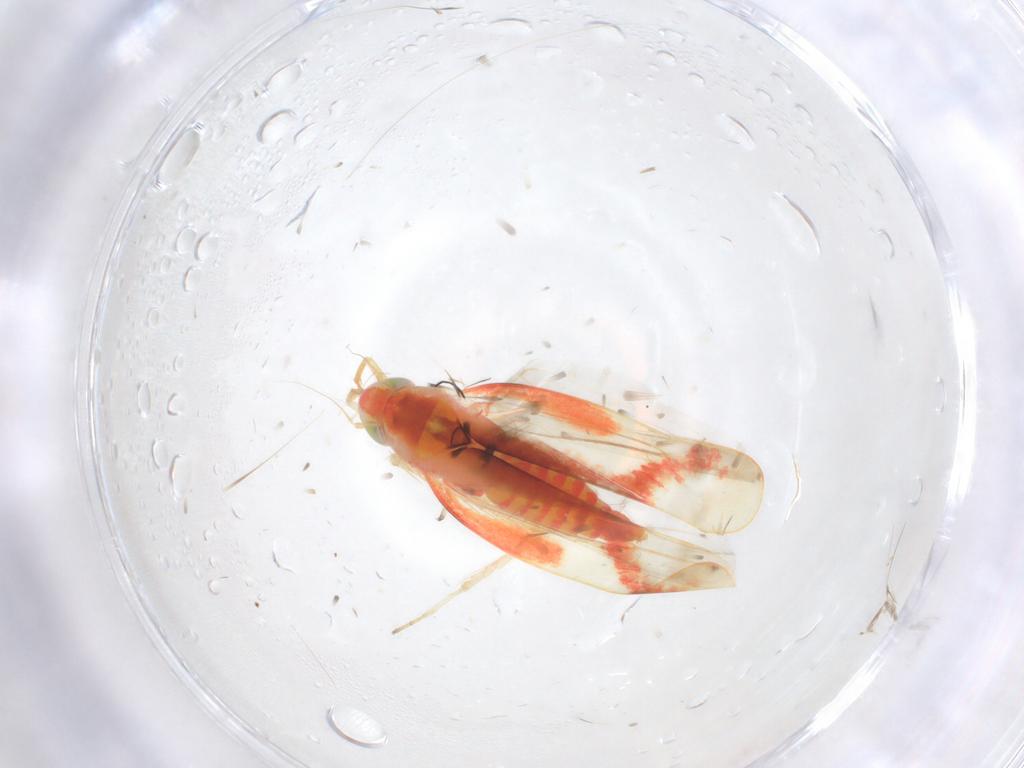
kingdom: Animalia
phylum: Arthropoda
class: Insecta
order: Hemiptera
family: Cicadellidae
